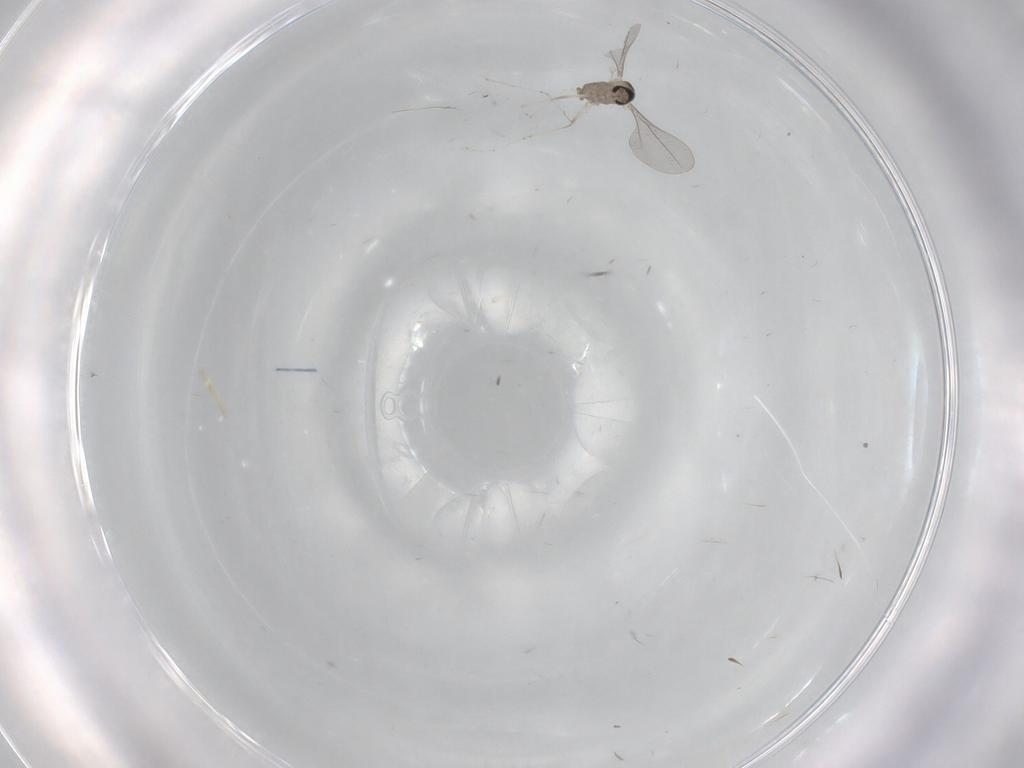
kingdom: Animalia
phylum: Arthropoda
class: Insecta
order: Diptera
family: Cecidomyiidae
